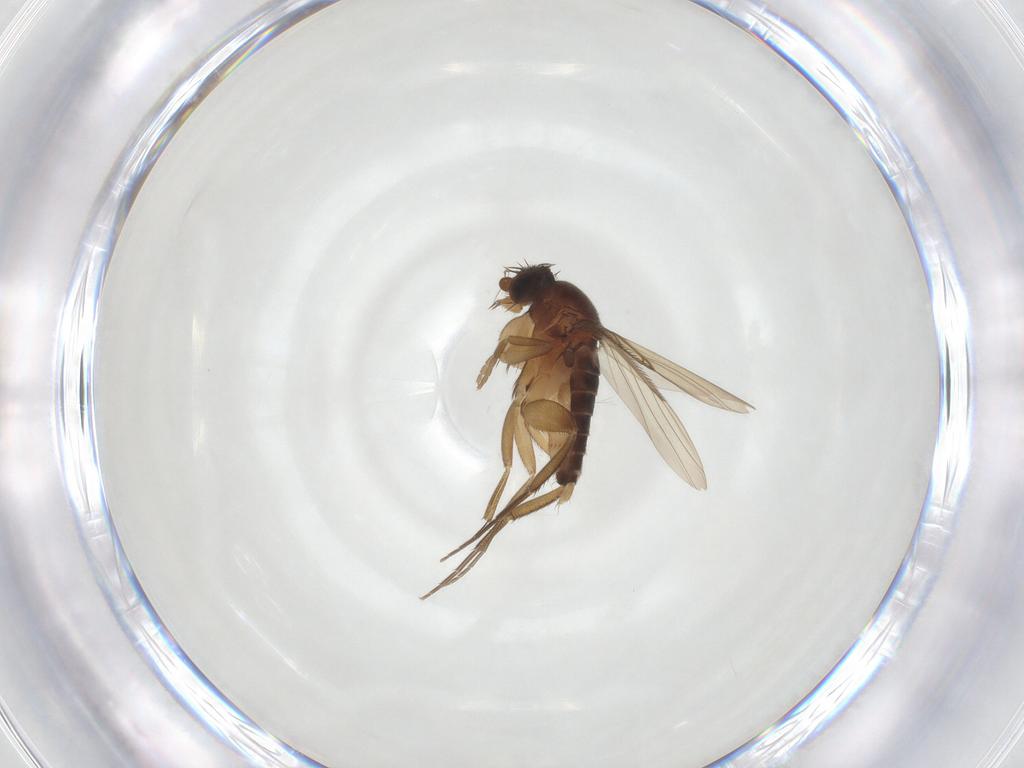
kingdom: Animalia
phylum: Arthropoda
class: Insecta
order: Diptera
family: Phoridae
